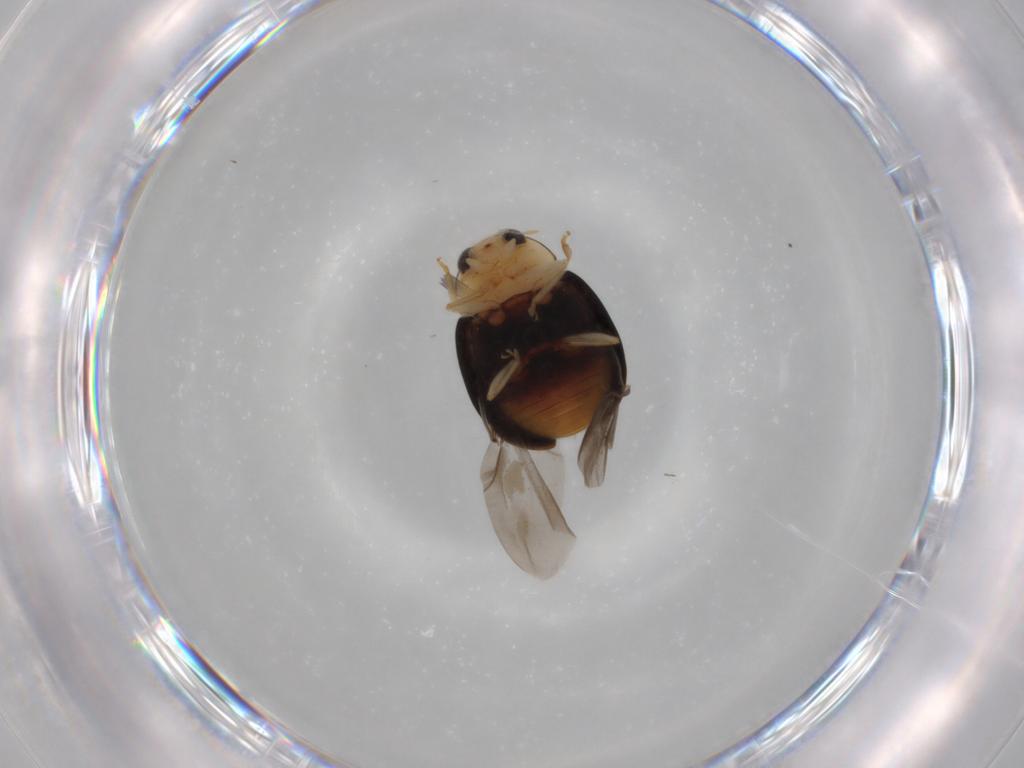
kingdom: Animalia
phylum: Arthropoda
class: Insecta
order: Coleoptera
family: Coccinellidae
